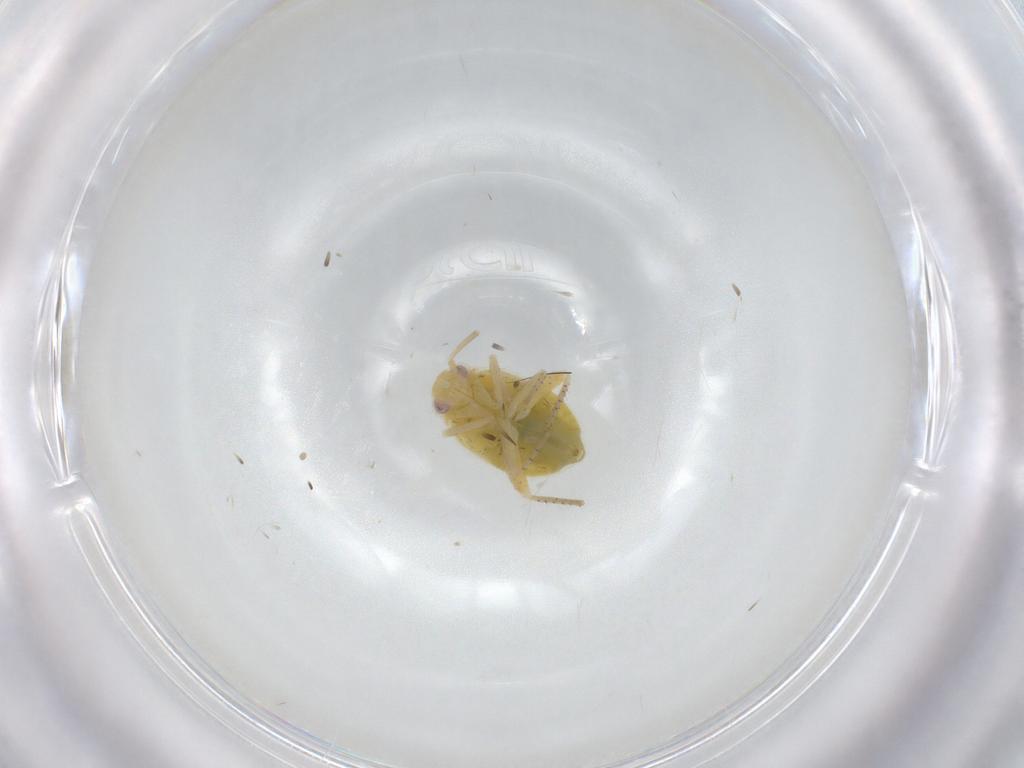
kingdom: Animalia
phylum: Arthropoda
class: Insecta
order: Hemiptera
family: Miridae
